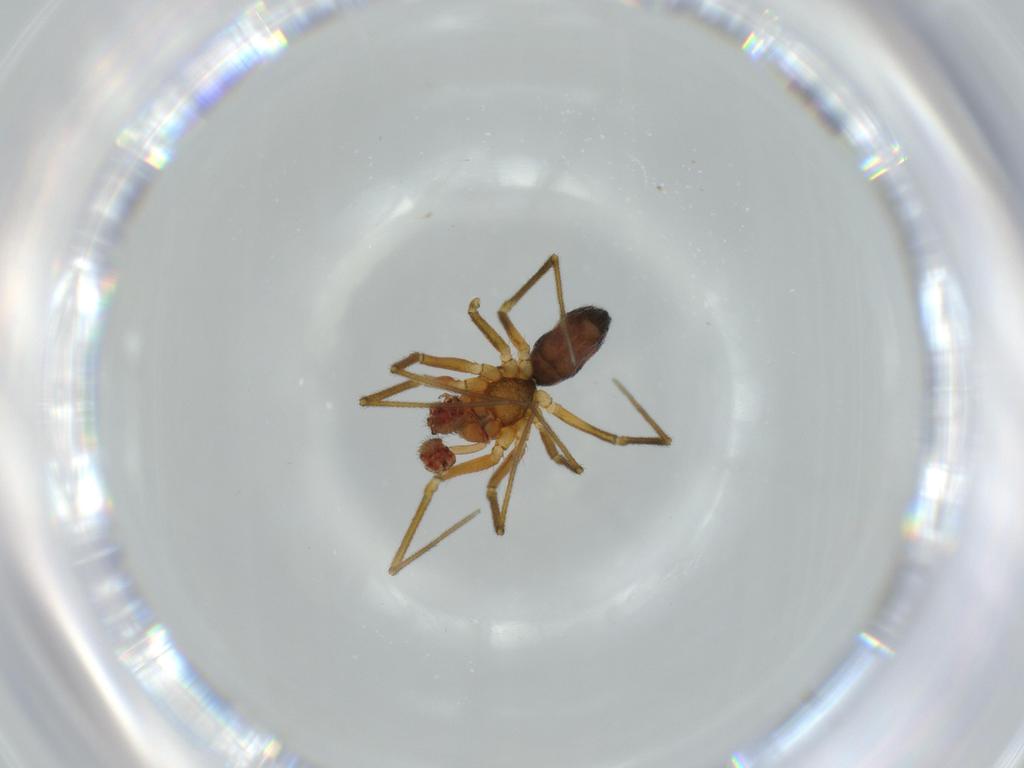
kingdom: Animalia
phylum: Arthropoda
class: Arachnida
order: Araneae
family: Linyphiidae
